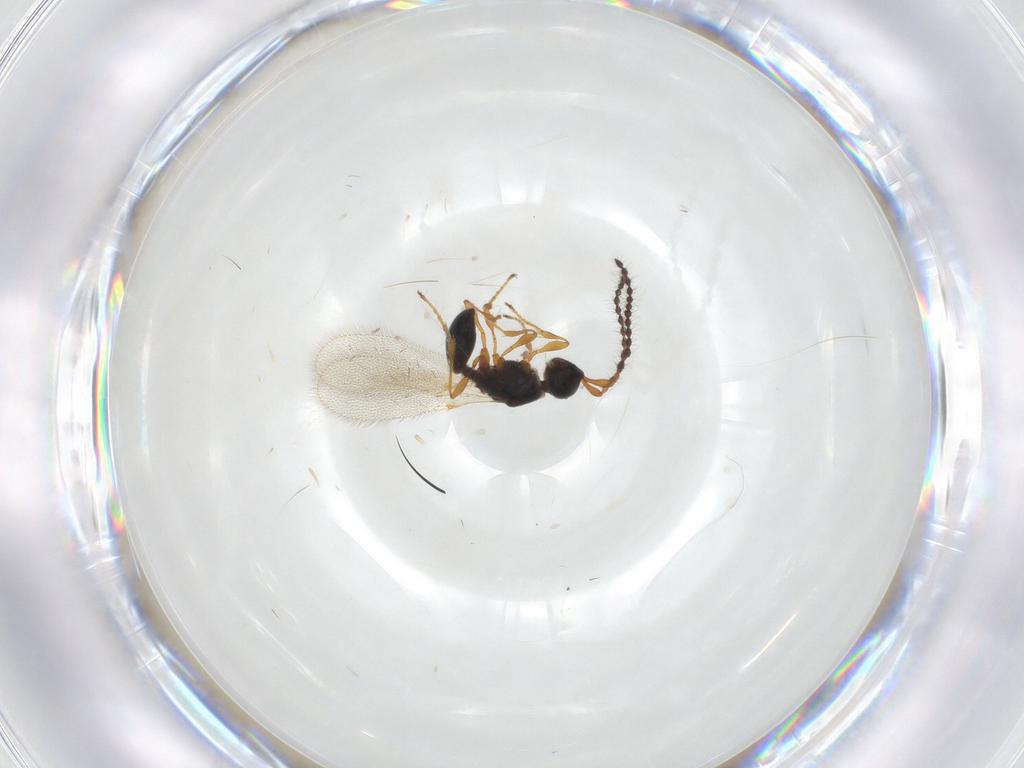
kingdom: Animalia
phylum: Arthropoda
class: Insecta
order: Hymenoptera
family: Diapriidae
